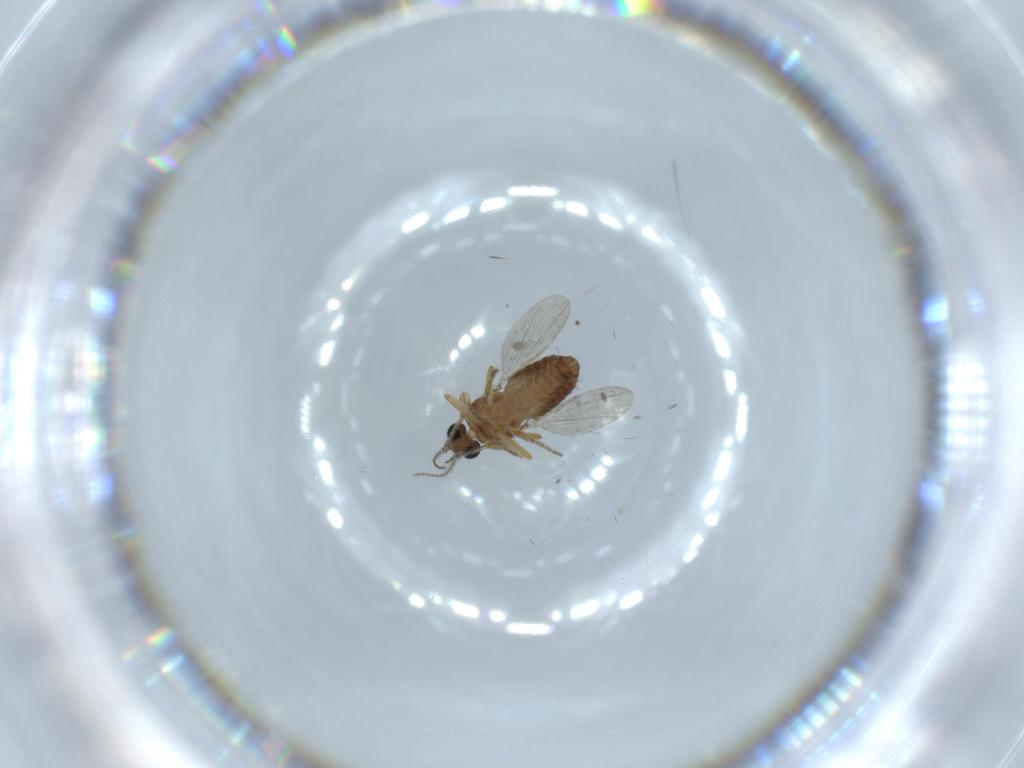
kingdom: Animalia
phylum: Arthropoda
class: Insecta
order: Diptera
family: Ceratopogonidae
